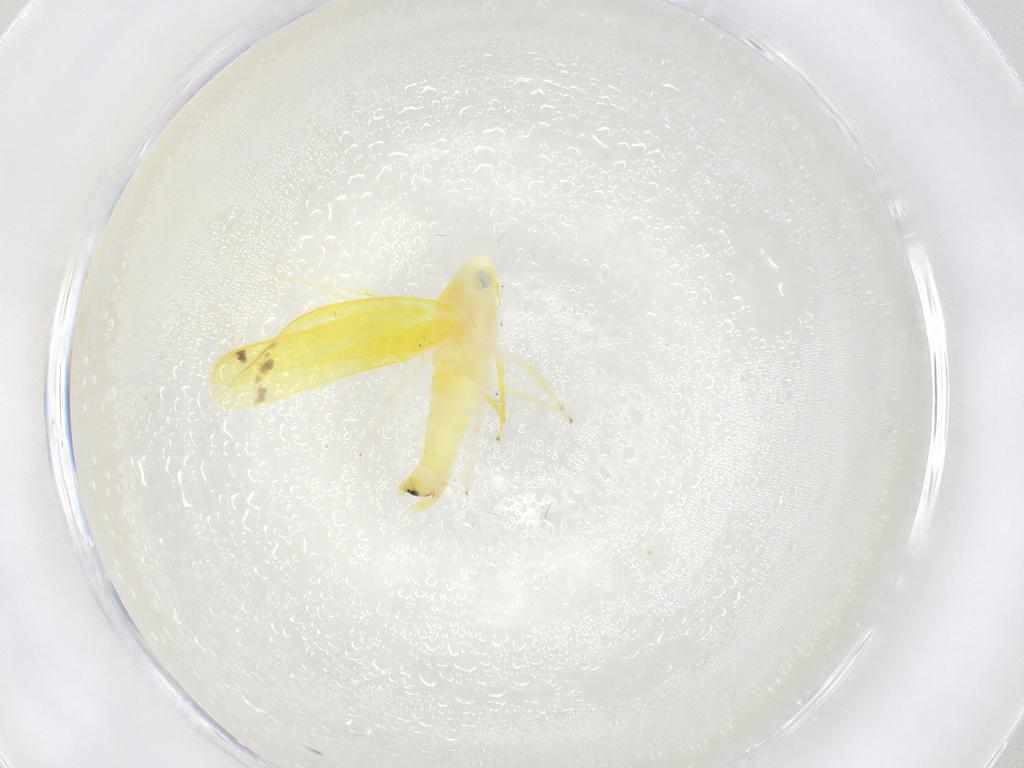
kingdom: Animalia
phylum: Arthropoda
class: Insecta
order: Hemiptera
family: Cicadellidae
